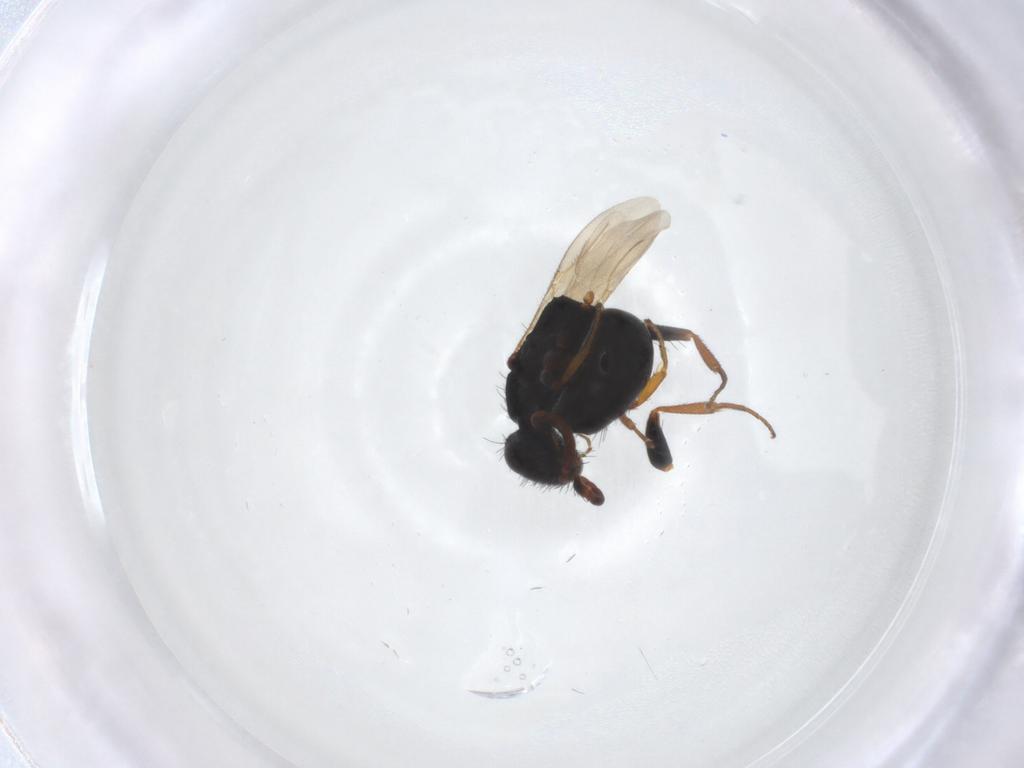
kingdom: Animalia
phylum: Arthropoda
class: Insecta
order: Hymenoptera
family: Bethylidae
